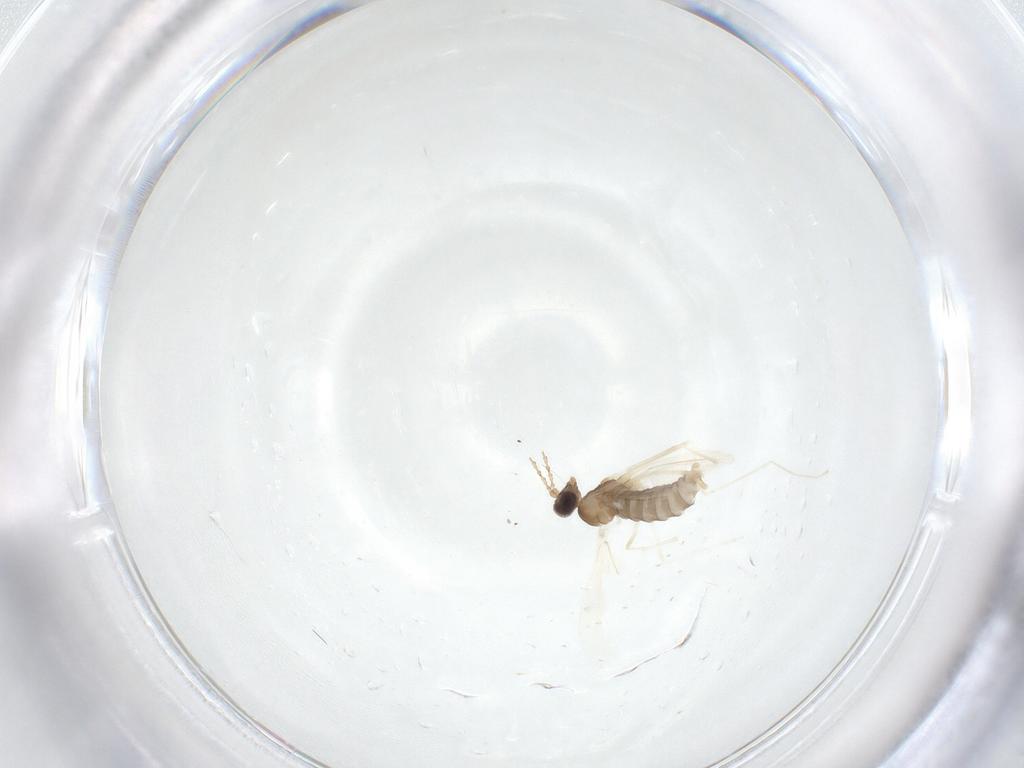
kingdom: Animalia
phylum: Arthropoda
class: Insecta
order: Diptera
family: Cecidomyiidae
